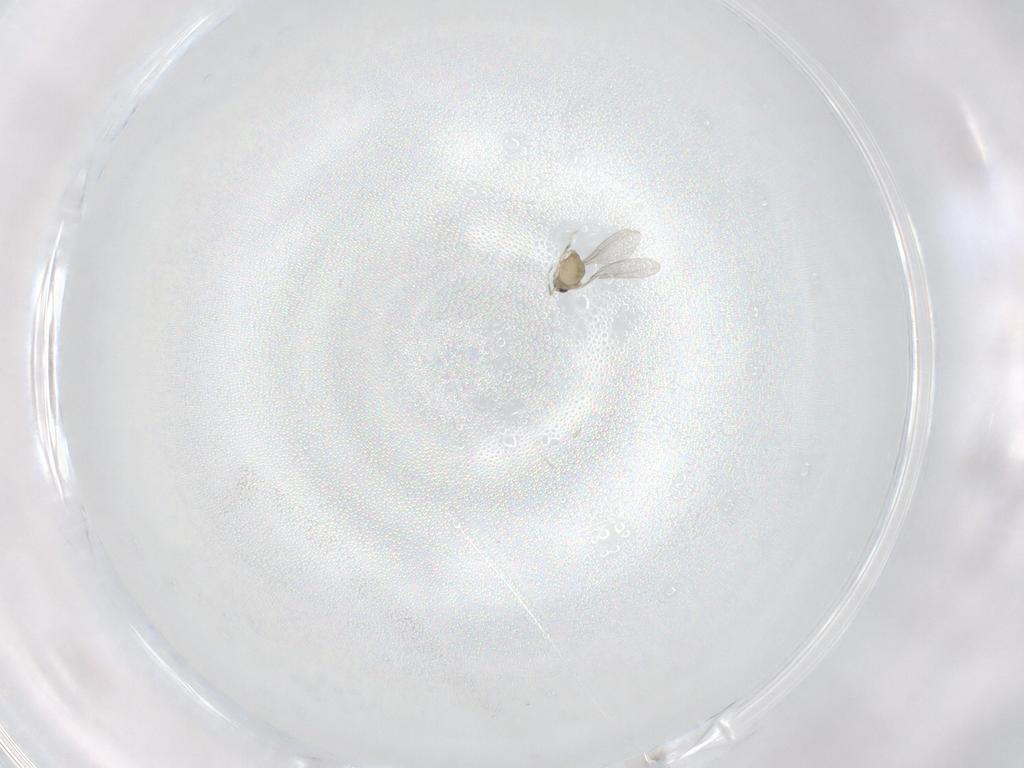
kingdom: Animalia
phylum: Arthropoda
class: Insecta
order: Diptera
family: Cecidomyiidae
